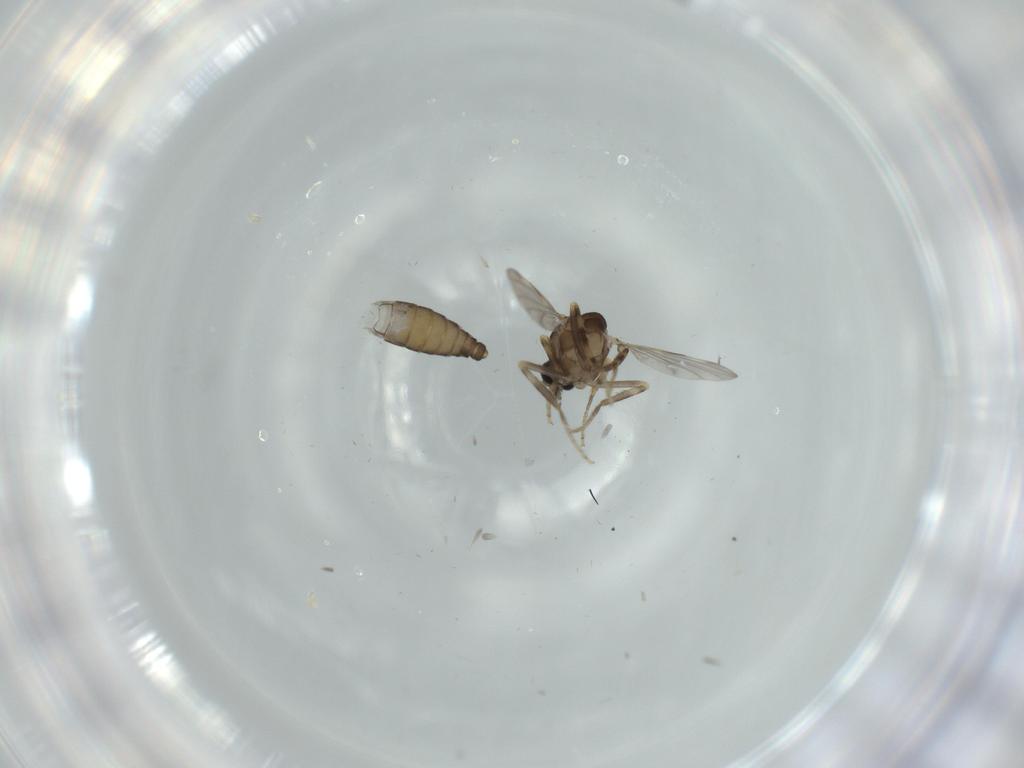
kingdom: Animalia
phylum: Arthropoda
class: Insecta
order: Diptera
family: Ceratopogonidae
